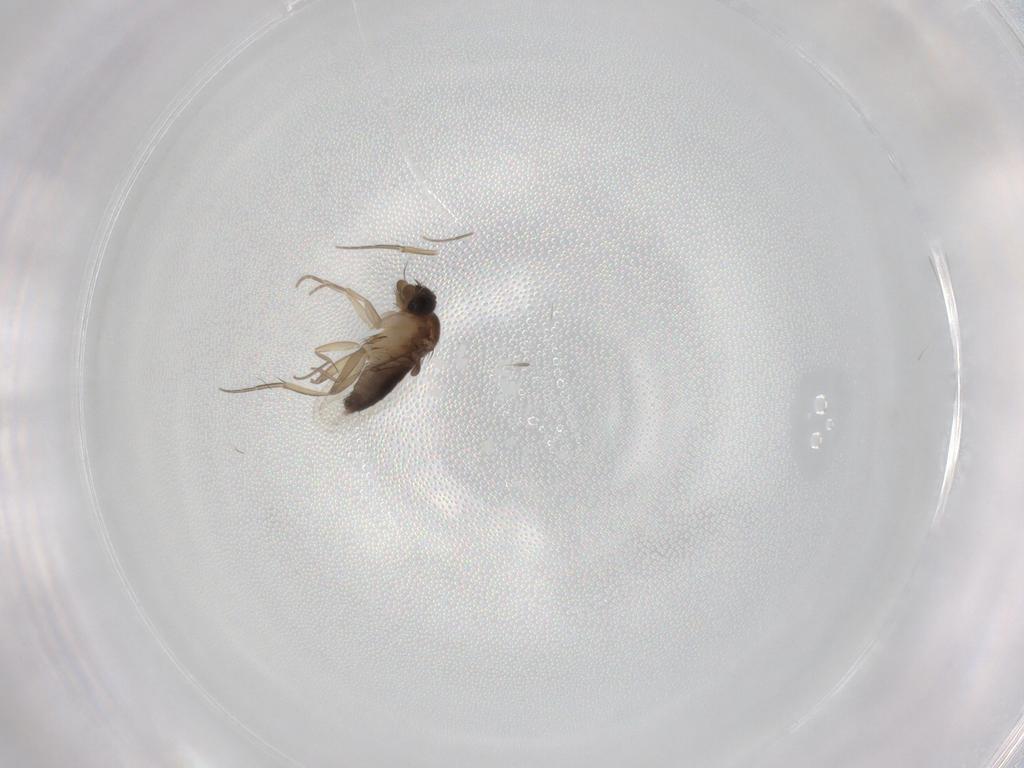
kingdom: Animalia
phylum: Arthropoda
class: Insecta
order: Diptera
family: Phoridae
